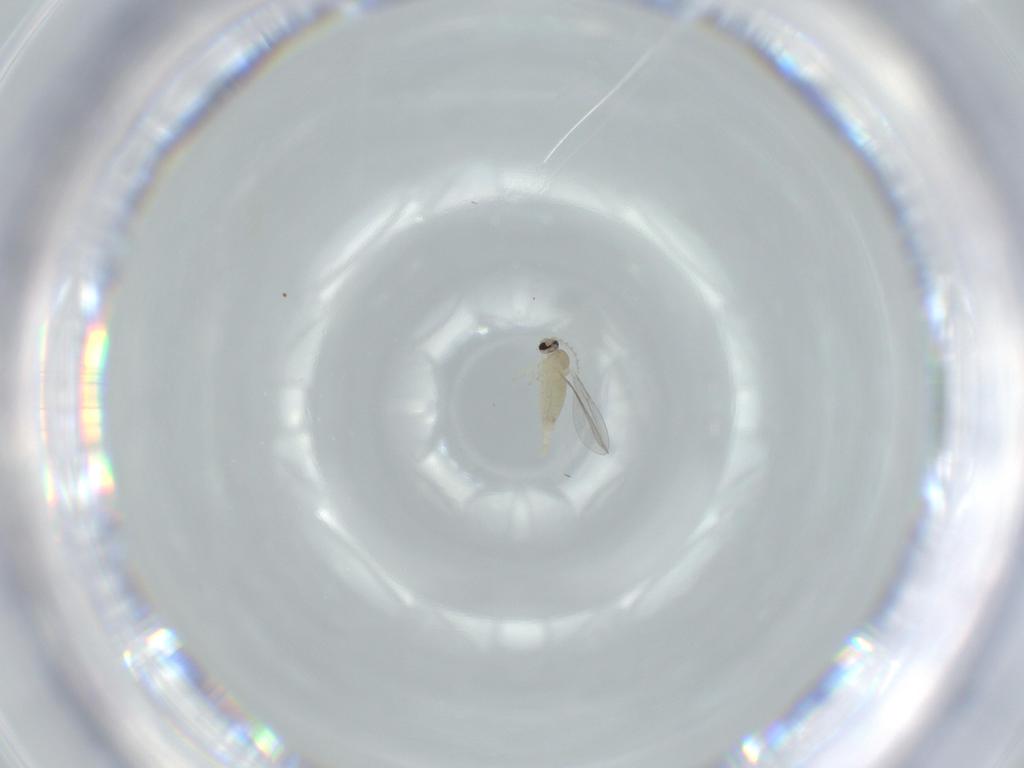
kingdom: Animalia
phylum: Arthropoda
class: Insecta
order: Diptera
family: Cecidomyiidae
